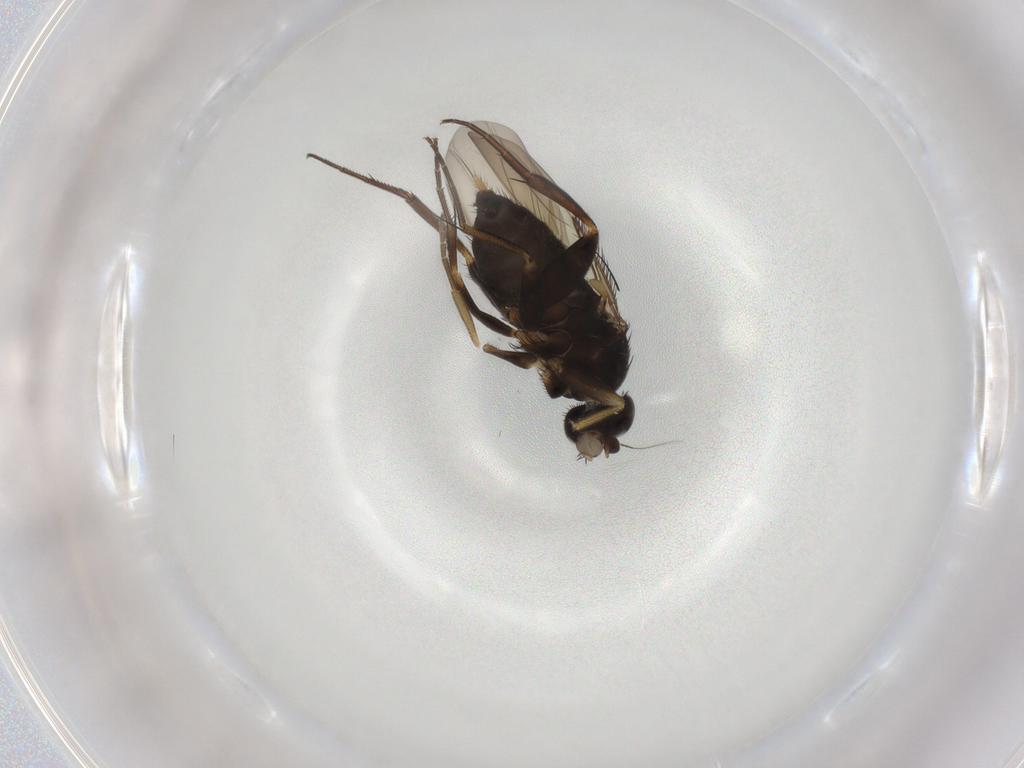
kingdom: Animalia
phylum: Arthropoda
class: Insecta
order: Diptera
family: Phoridae
